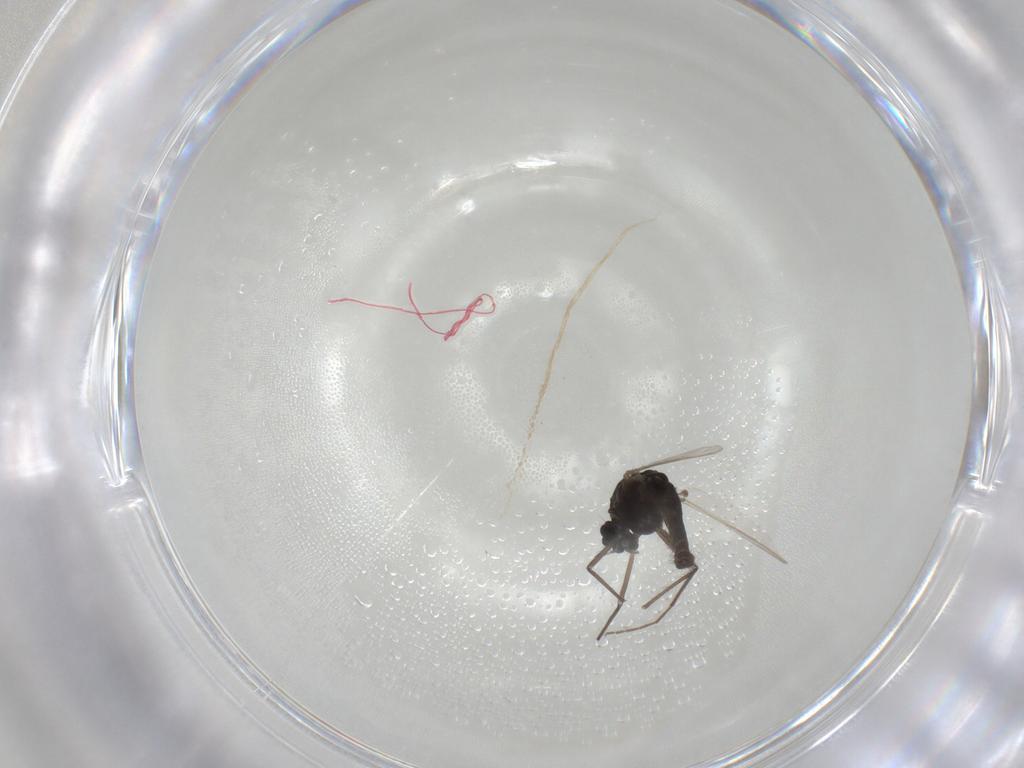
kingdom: Animalia
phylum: Arthropoda
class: Insecta
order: Diptera
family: Chironomidae
